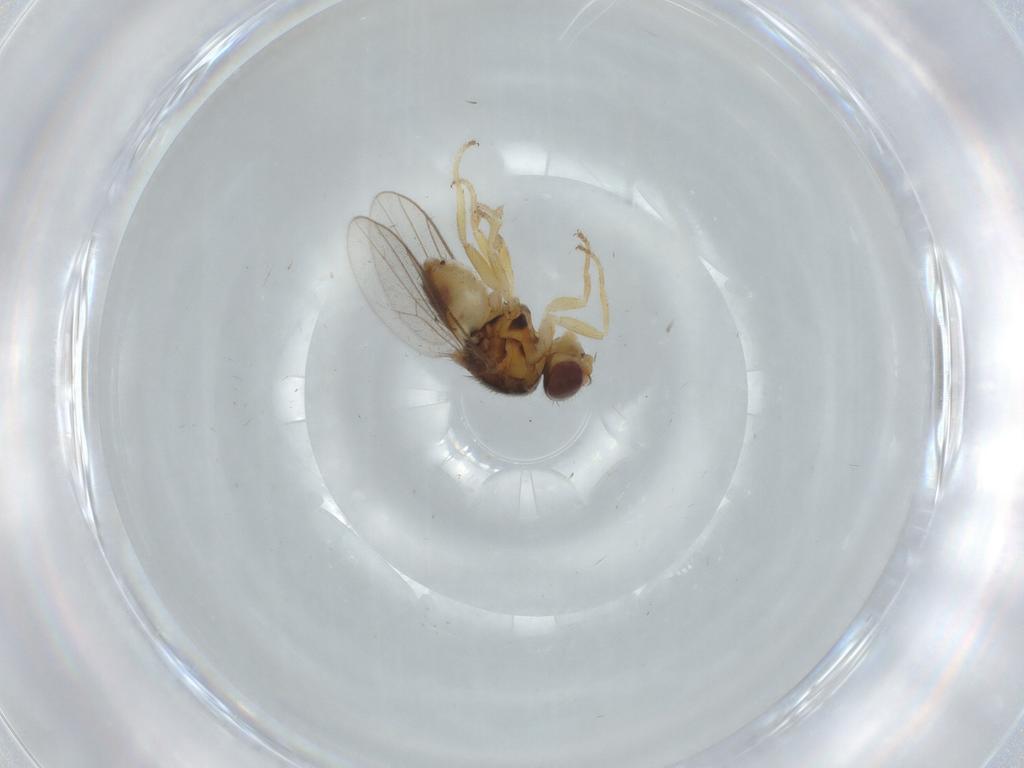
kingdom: Animalia
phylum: Arthropoda
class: Insecta
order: Diptera
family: Chloropidae
